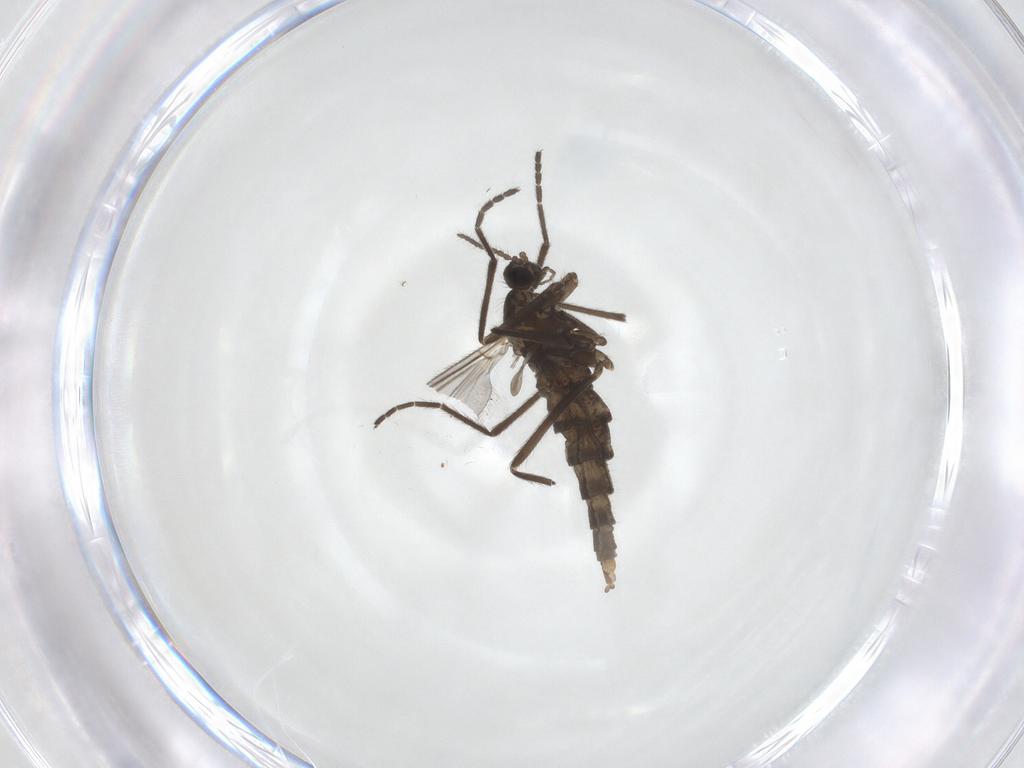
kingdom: Animalia
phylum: Arthropoda
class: Insecta
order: Diptera
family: Cecidomyiidae
